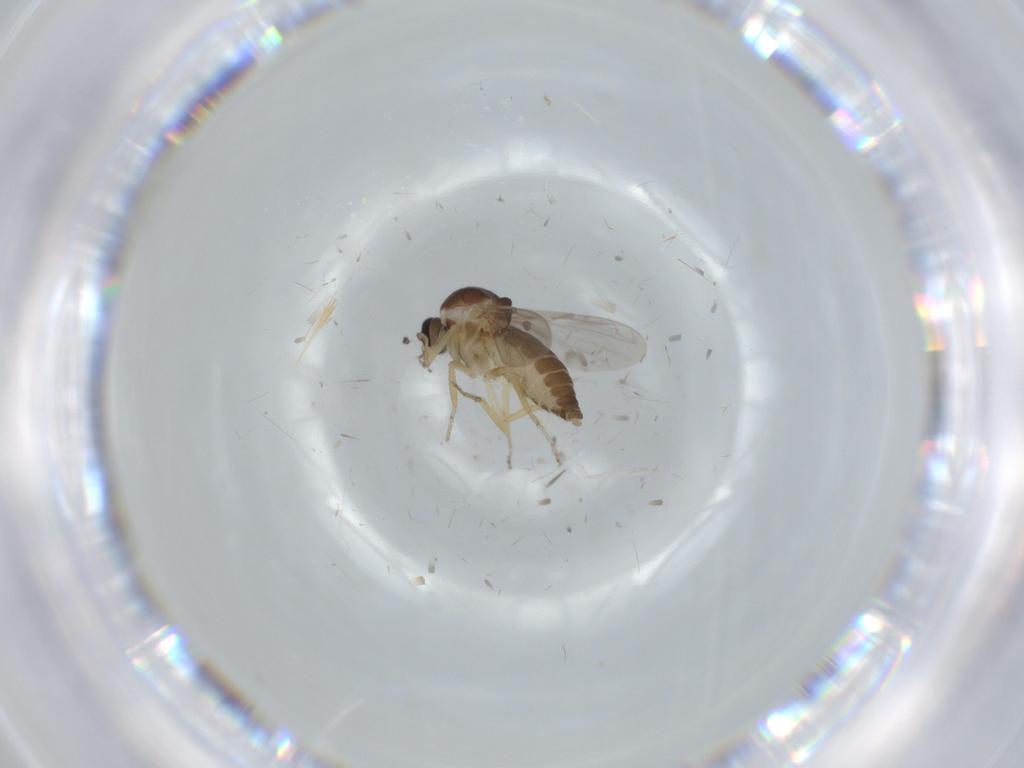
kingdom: Animalia
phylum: Arthropoda
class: Insecta
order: Diptera
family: Ceratopogonidae
